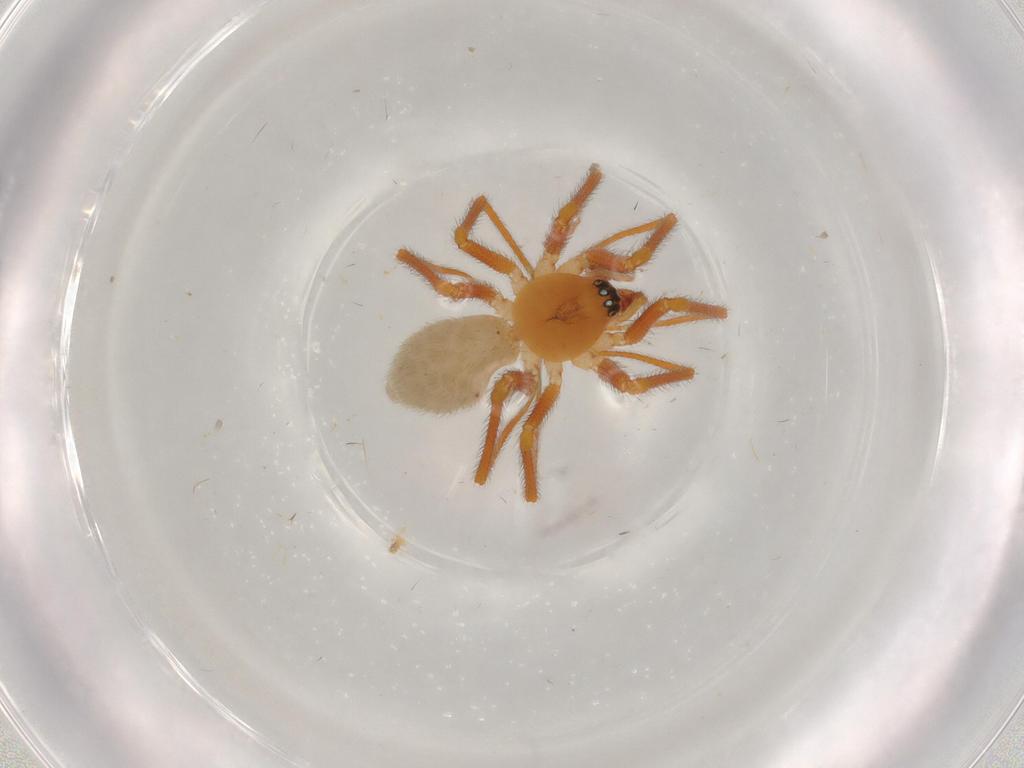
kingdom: Animalia
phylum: Arthropoda
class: Arachnida
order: Araneae
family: Linyphiidae
